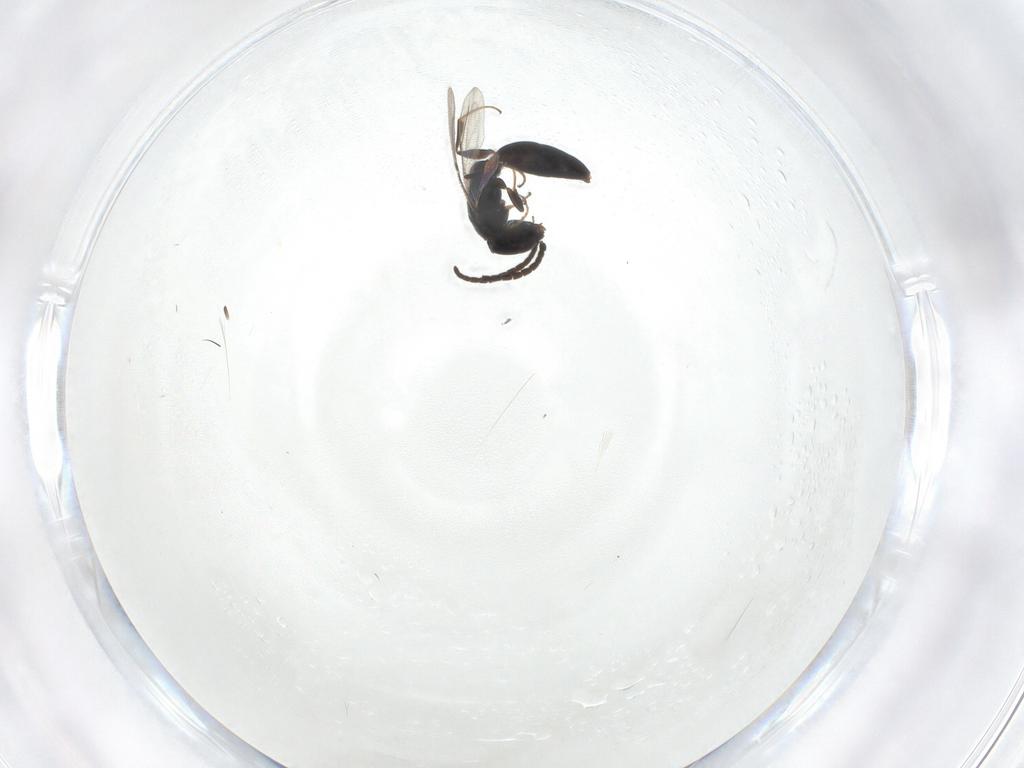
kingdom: Animalia
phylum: Arthropoda
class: Insecta
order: Hymenoptera
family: Bethylidae
